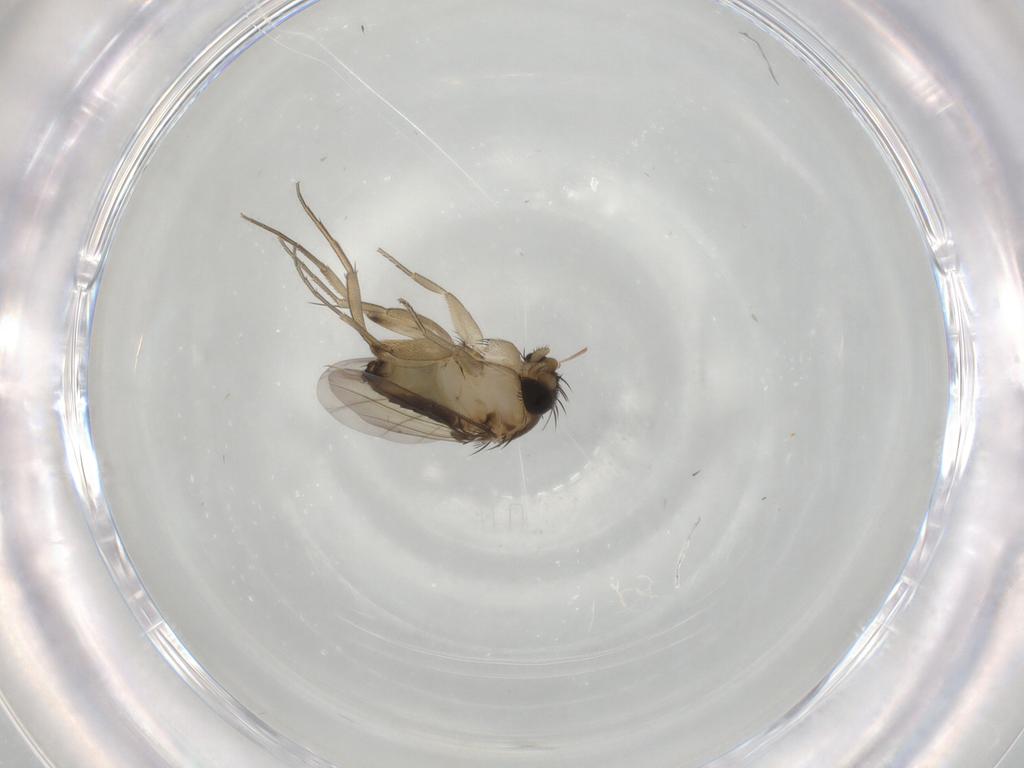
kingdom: Animalia
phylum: Arthropoda
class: Insecta
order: Diptera
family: Phoridae
